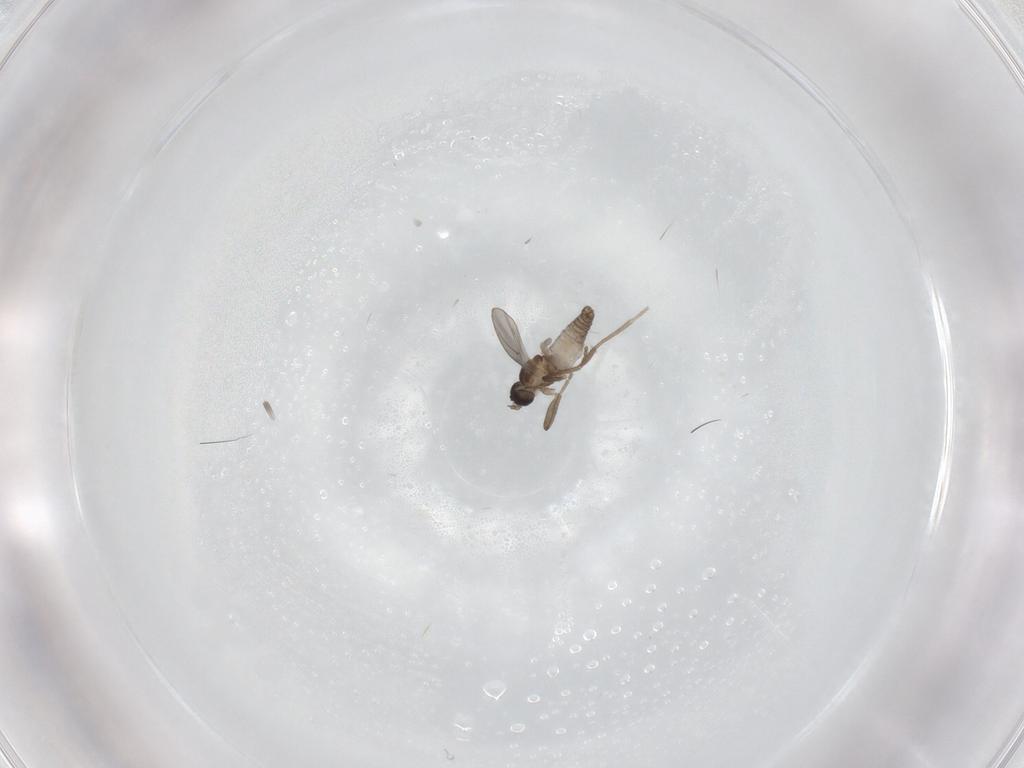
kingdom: Animalia
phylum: Arthropoda
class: Insecta
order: Diptera
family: Cecidomyiidae
